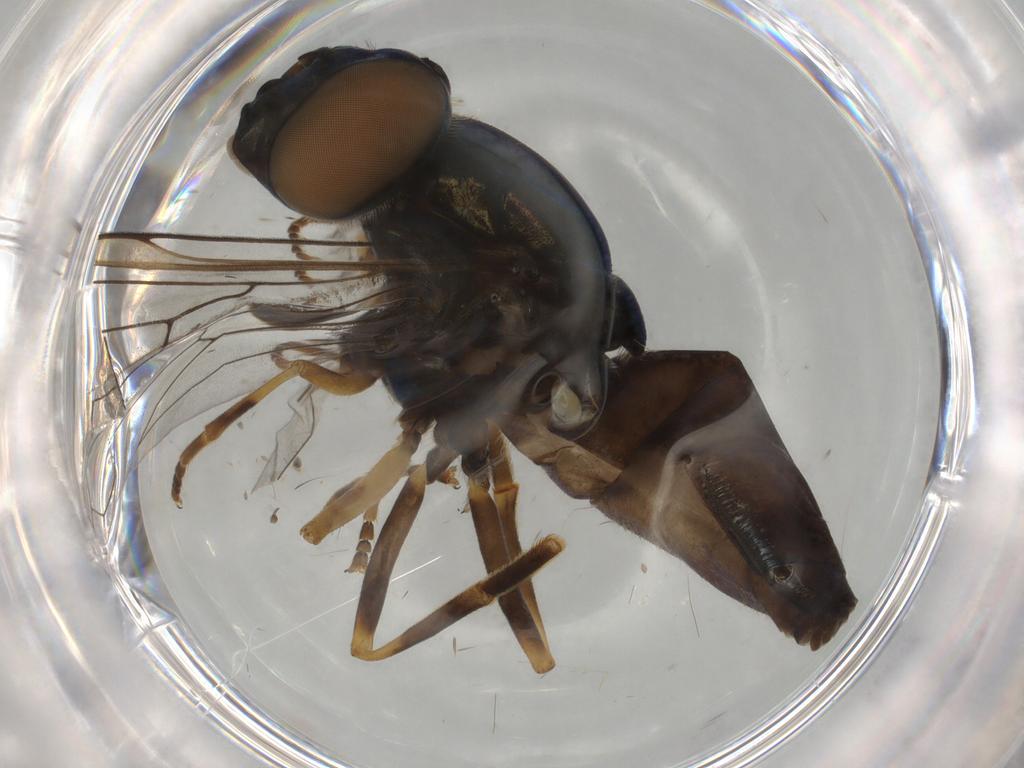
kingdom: Animalia
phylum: Arthropoda
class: Insecta
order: Diptera
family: Syrphidae
